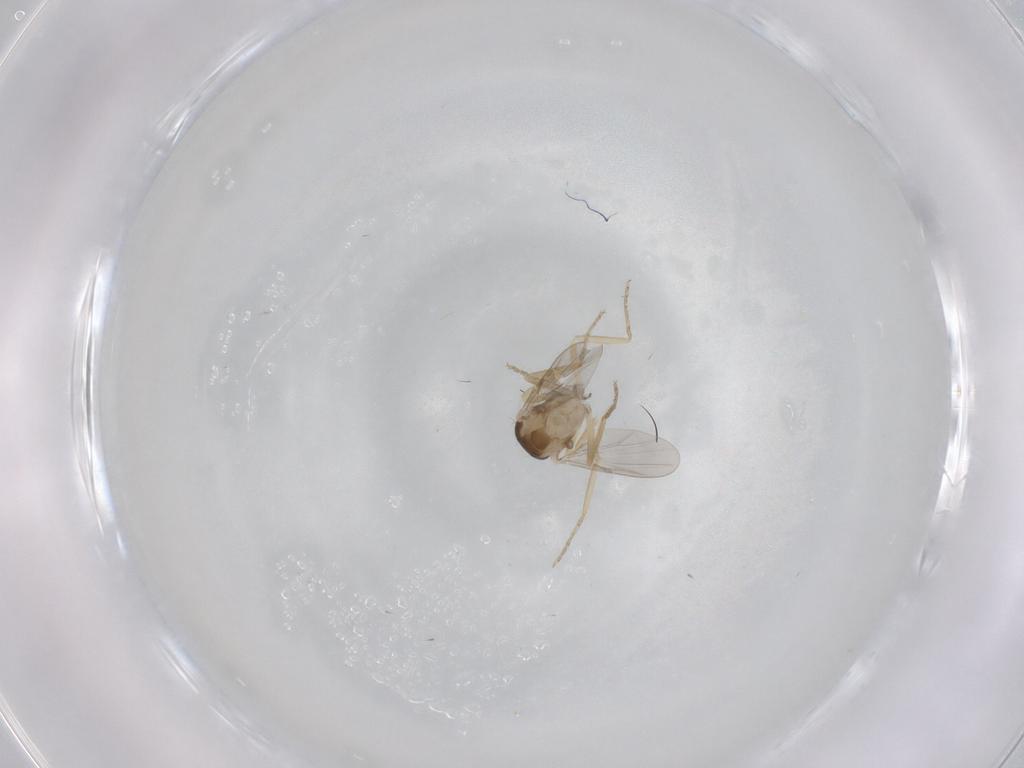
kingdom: Animalia
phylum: Arthropoda
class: Insecta
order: Diptera
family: Ceratopogonidae
